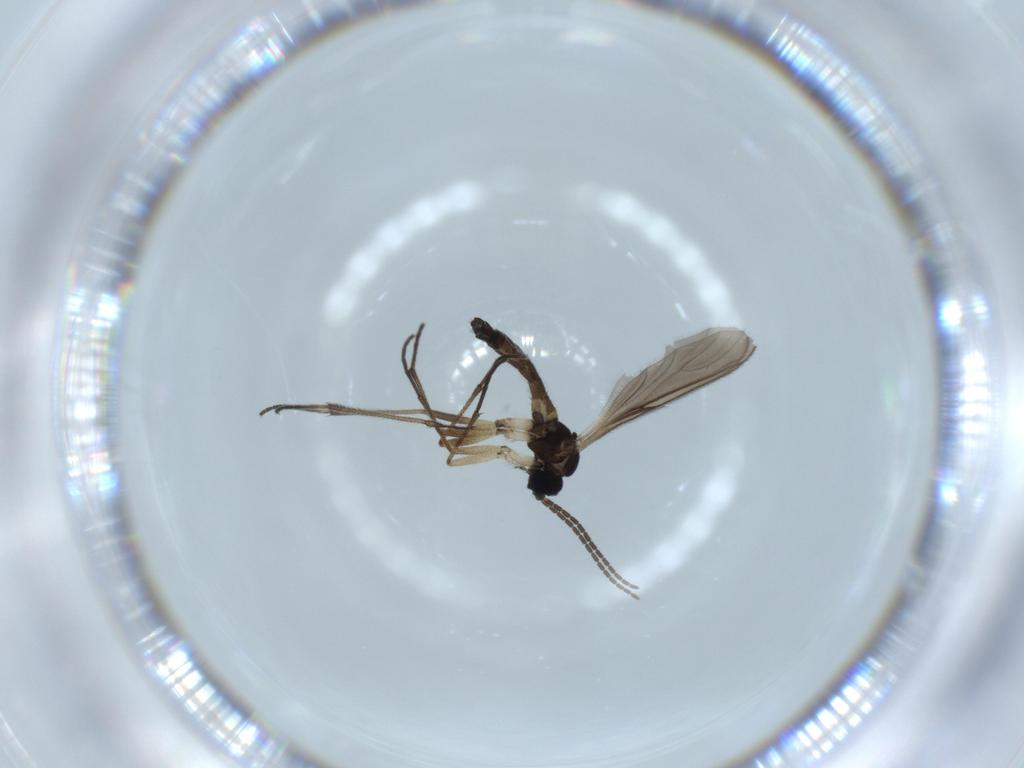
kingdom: Animalia
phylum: Arthropoda
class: Insecta
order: Diptera
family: Sciaridae
